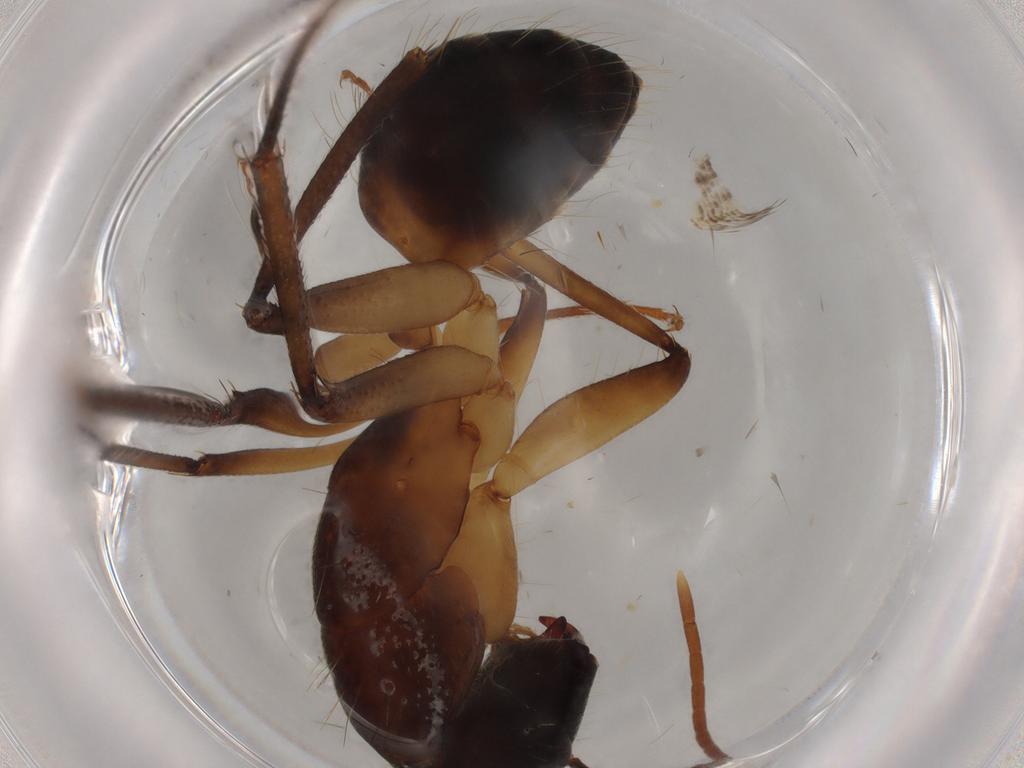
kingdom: Animalia
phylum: Arthropoda
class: Insecta
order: Hymenoptera
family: Formicidae
